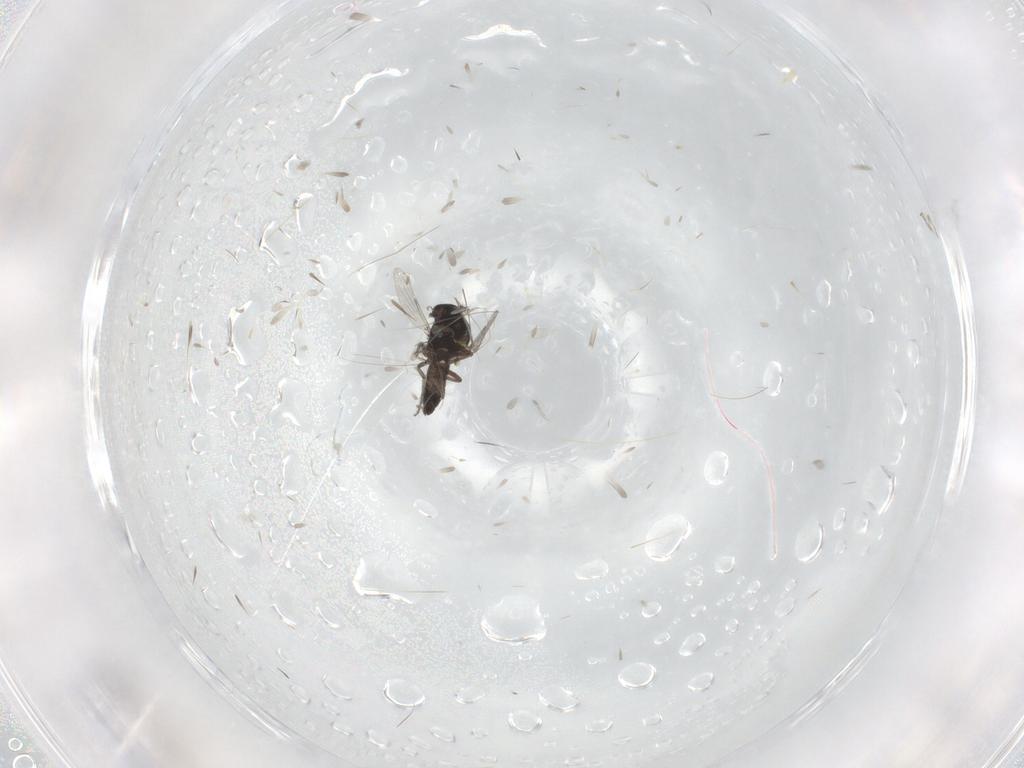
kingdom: Animalia
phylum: Arthropoda
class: Insecta
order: Diptera
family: Ceratopogonidae
